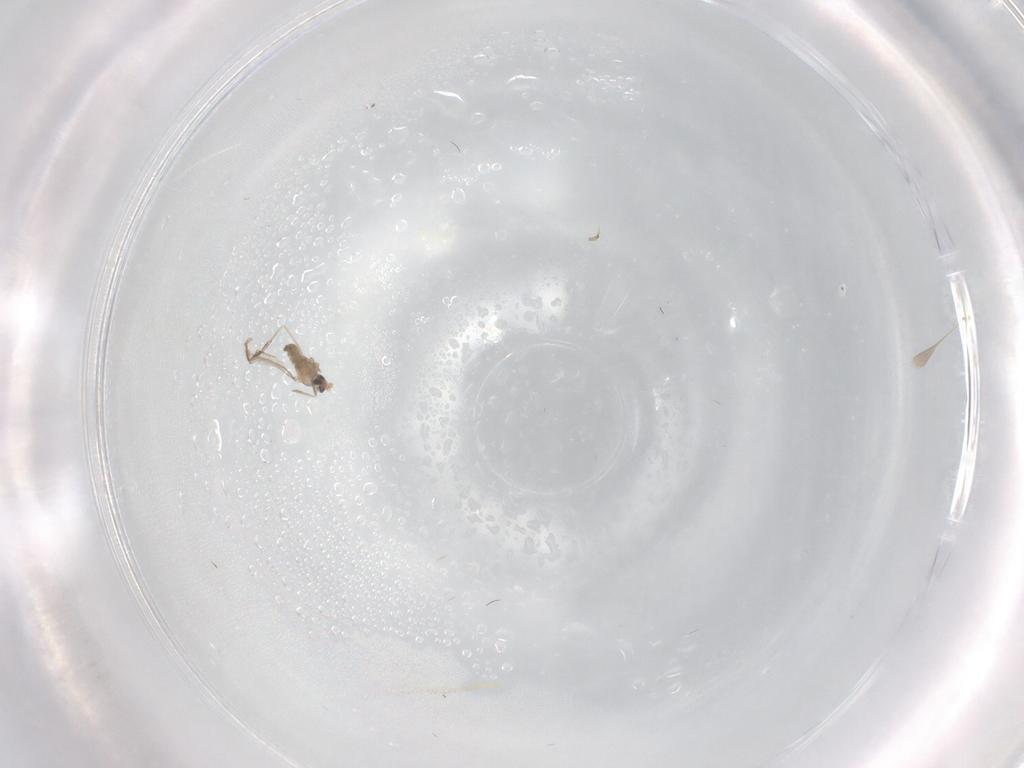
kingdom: Animalia
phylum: Arthropoda
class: Insecta
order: Diptera
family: Cecidomyiidae
